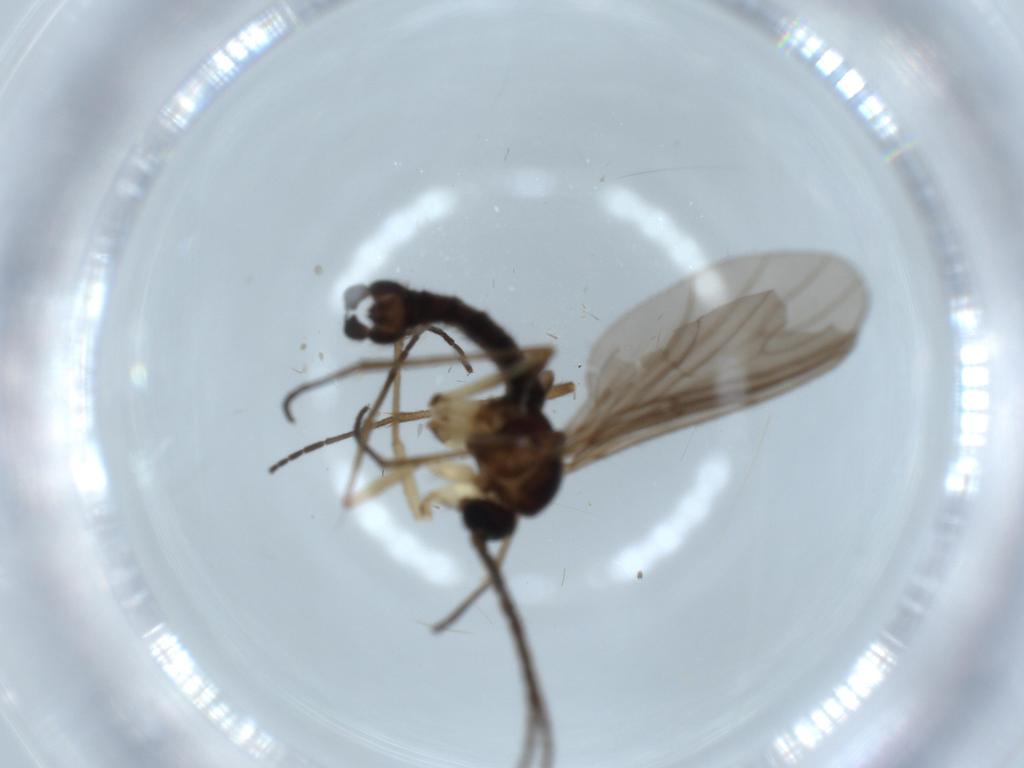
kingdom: Animalia
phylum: Arthropoda
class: Insecta
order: Diptera
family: Sciaridae
